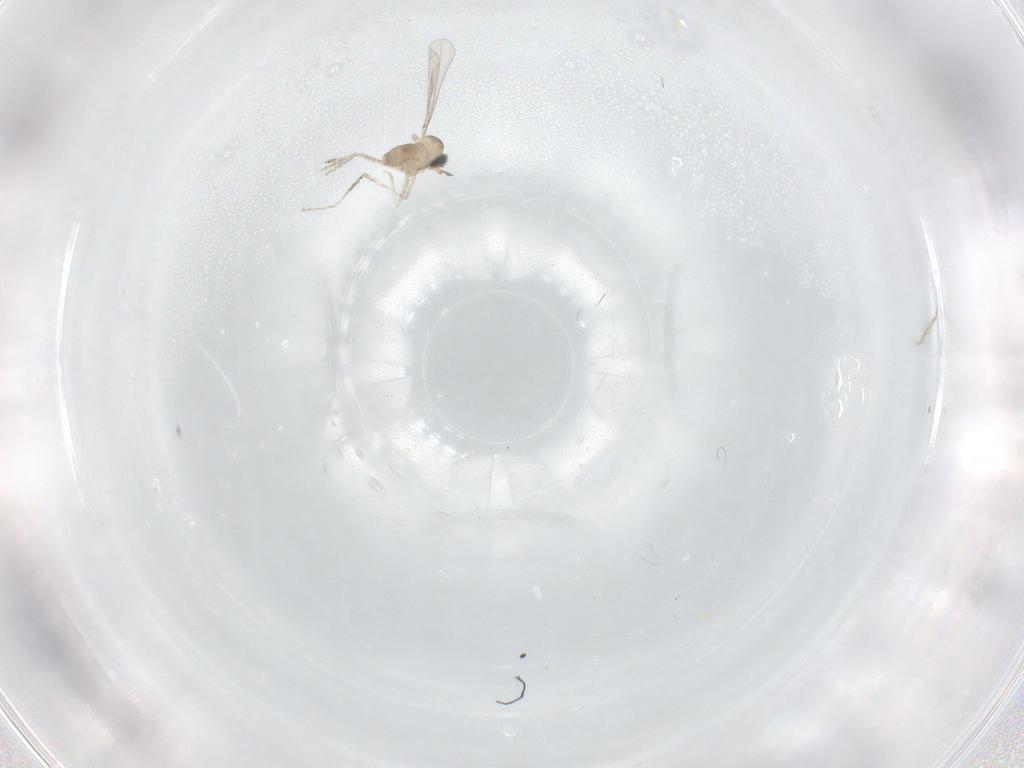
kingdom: Animalia
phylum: Arthropoda
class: Insecta
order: Diptera
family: Cecidomyiidae
